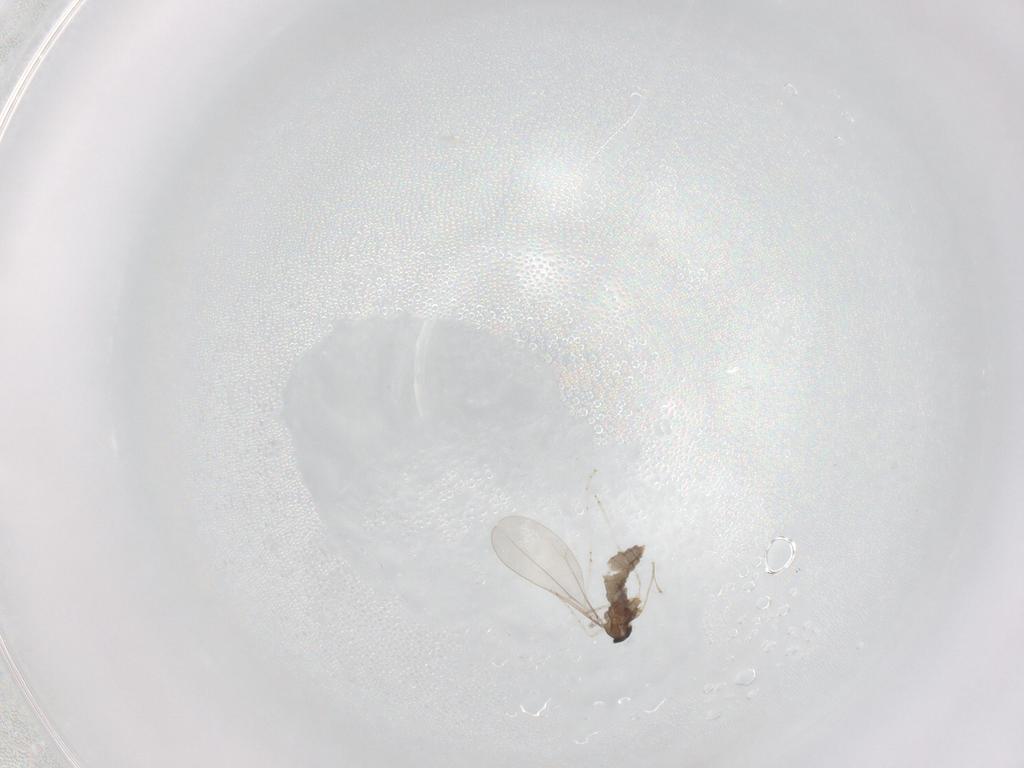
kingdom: Animalia
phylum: Arthropoda
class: Insecta
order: Diptera
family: Cecidomyiidae
